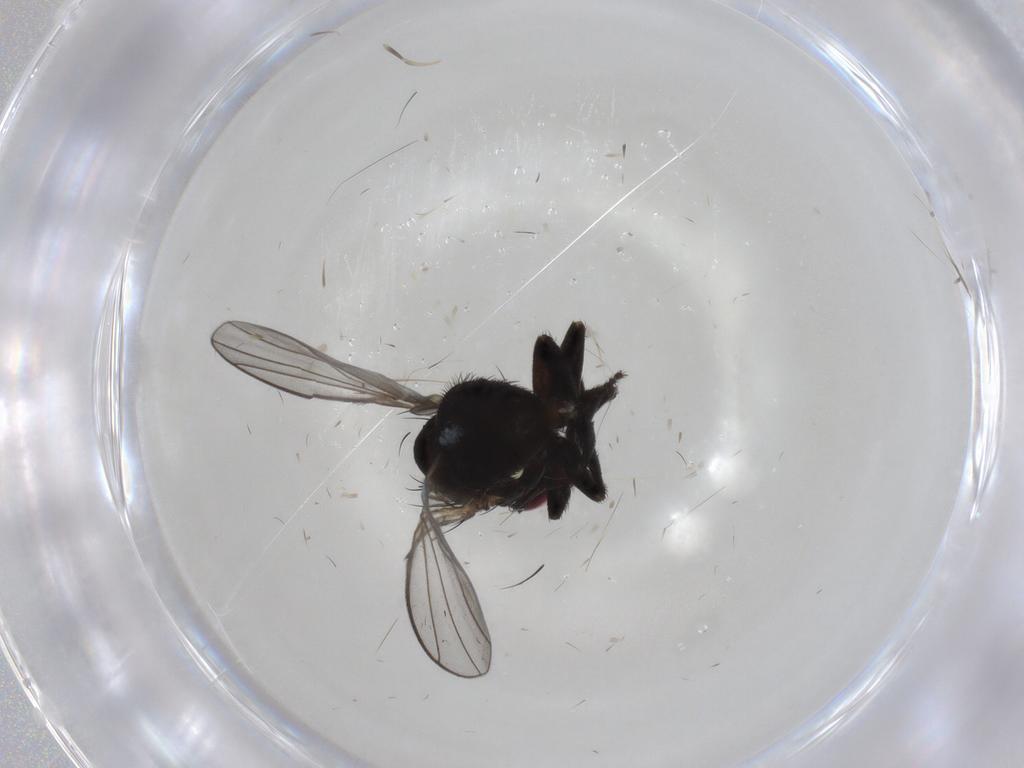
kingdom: Animalia
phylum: Arthropoda
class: Insecta
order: Diptera
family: Agromyzidae
